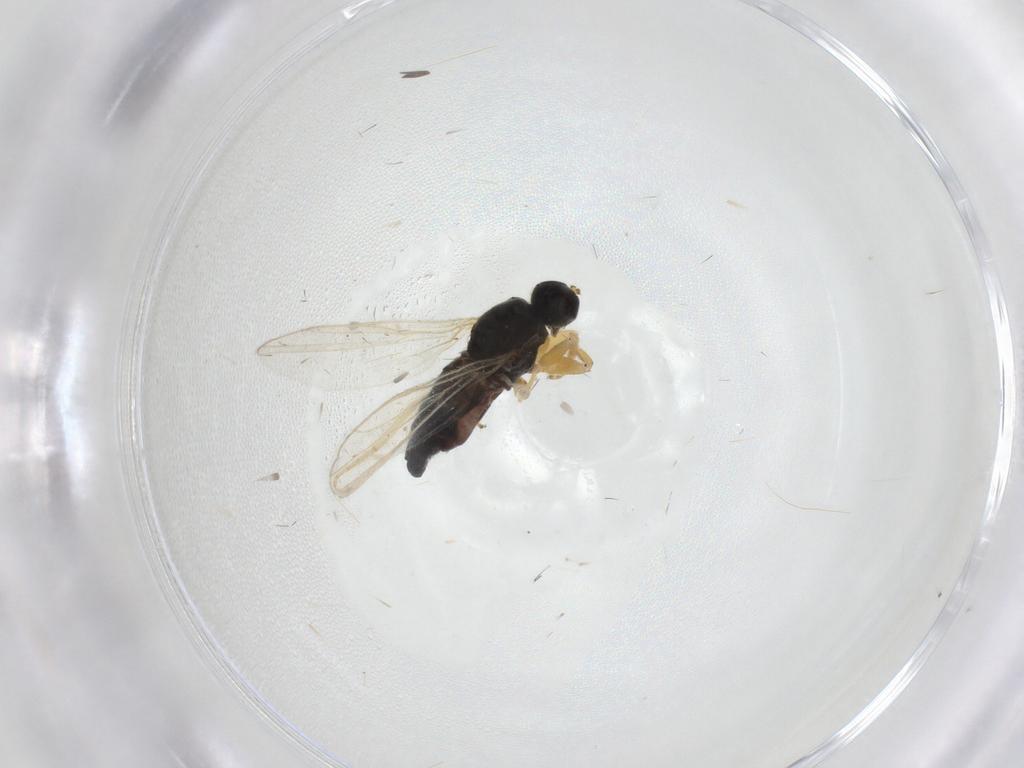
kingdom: Animalia
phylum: Arthropoda
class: Insecta
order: Diptera
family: Hybotidae
